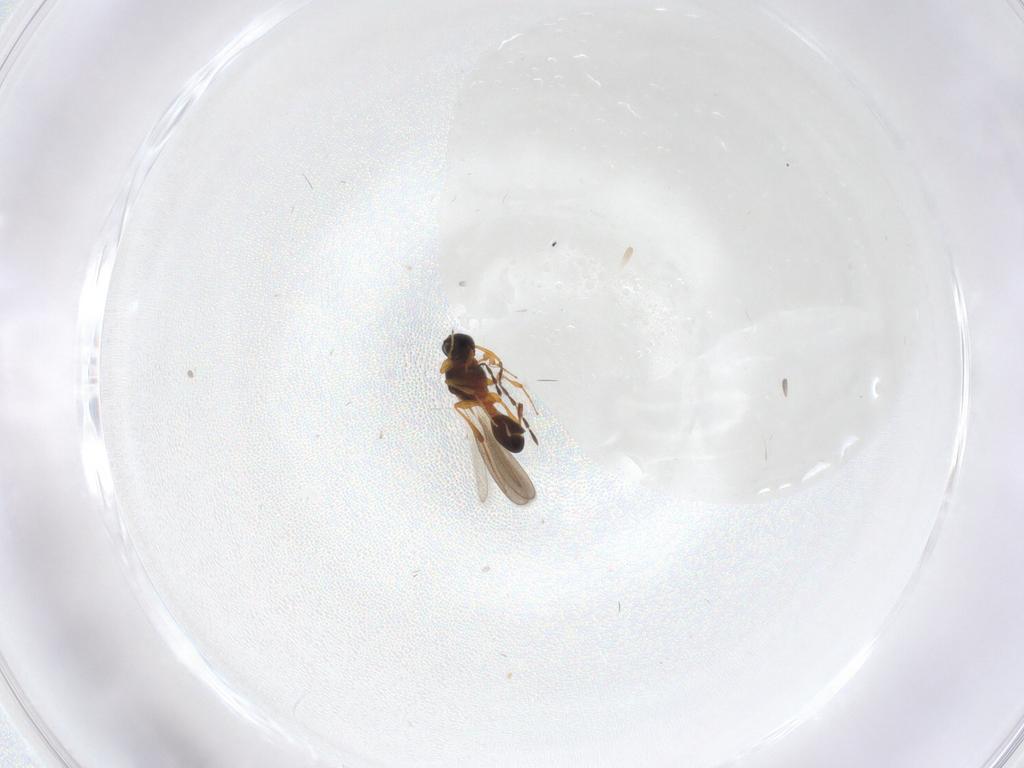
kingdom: Animalia
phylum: Arthropoda
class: Insecta
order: Hymenoptera
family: Platygastridae
